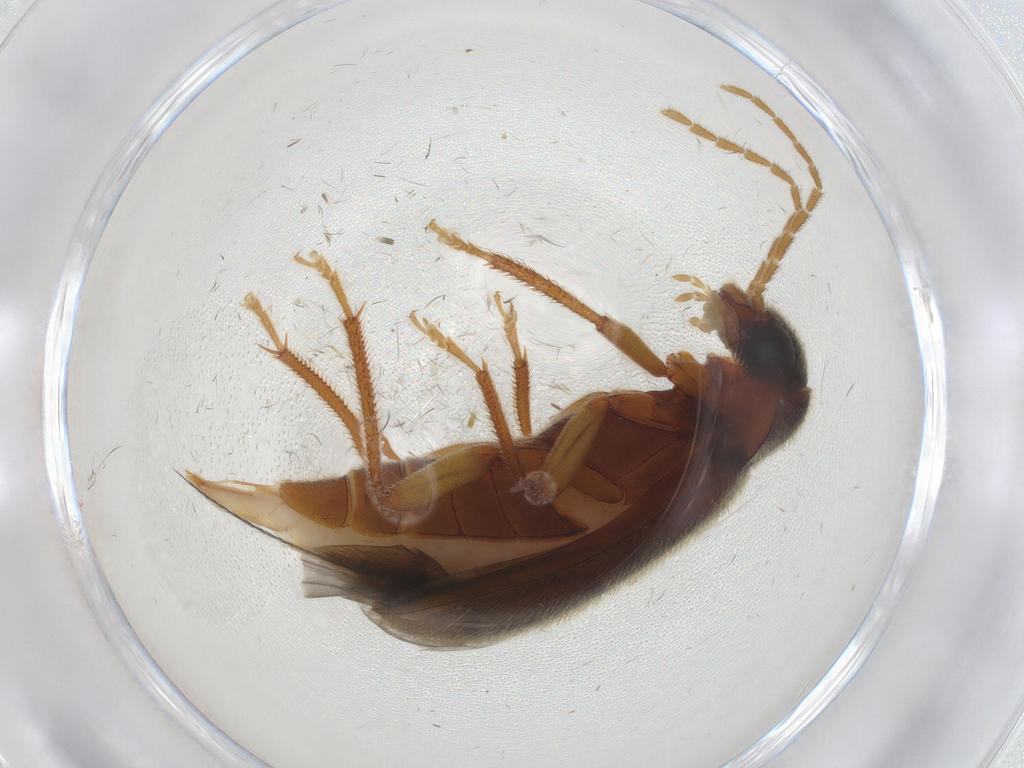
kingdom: Animalia
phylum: Arthropoda
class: Insecta
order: Coleoptera
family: Ptilodactylidae
